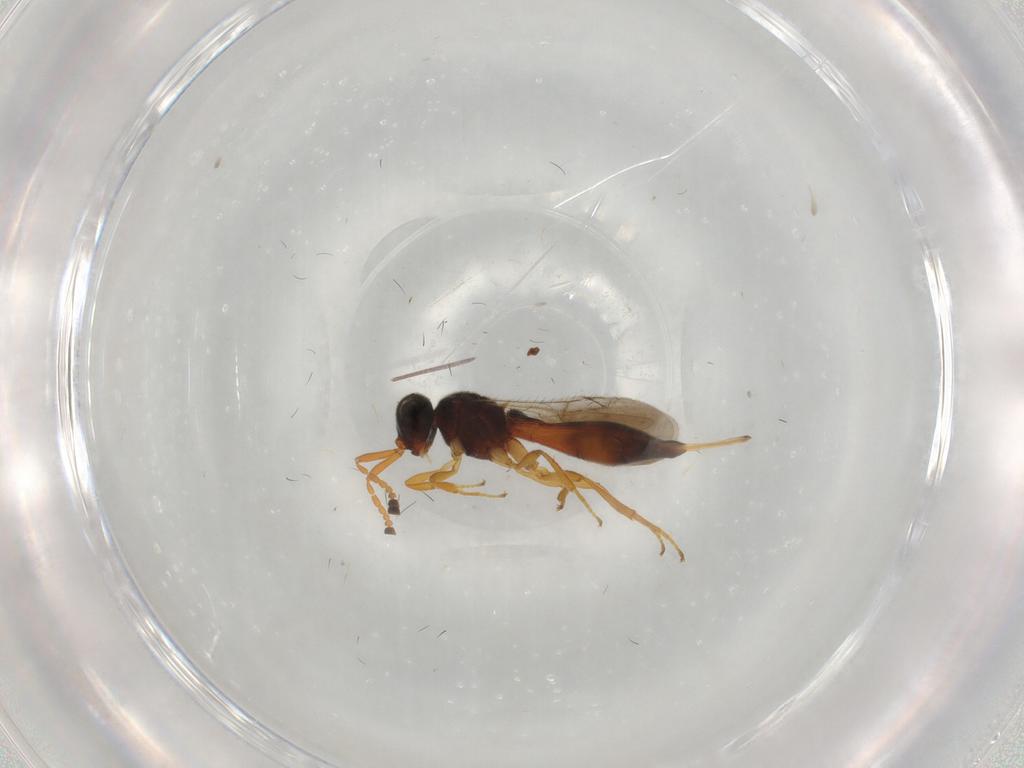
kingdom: Animalia
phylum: Arthropoda
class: Insecta
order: Hymenoptera
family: Scelionidae
